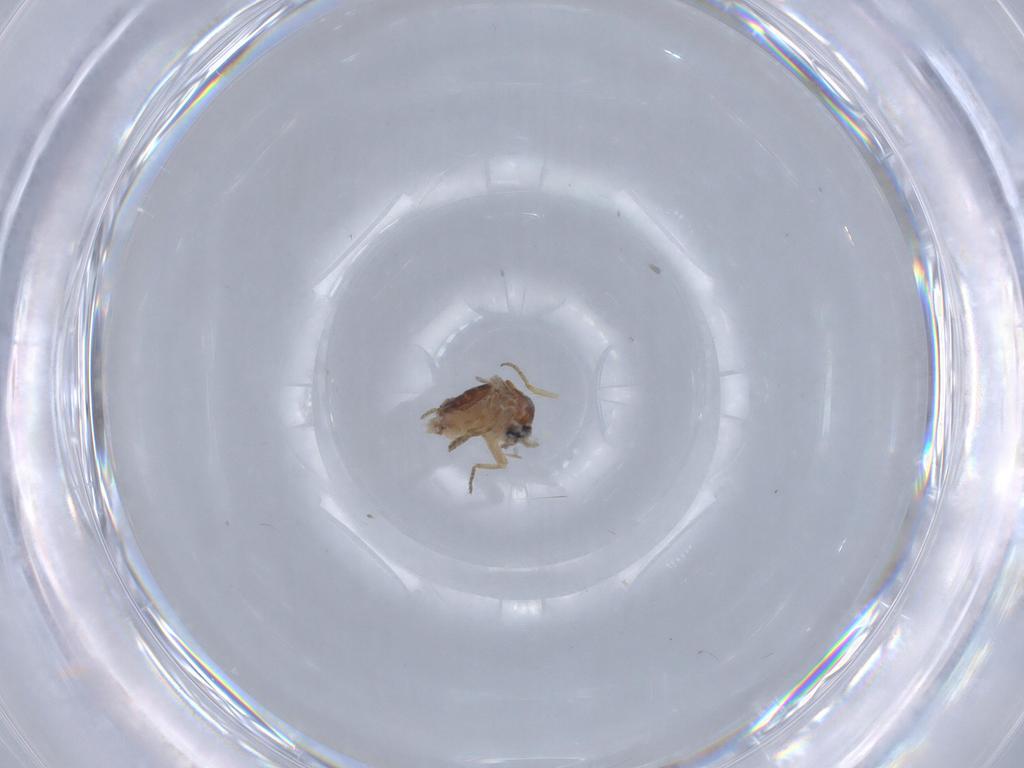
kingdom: Animalia
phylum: Arthropoda
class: Insecta
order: Diptera
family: Ceratopogonidae
